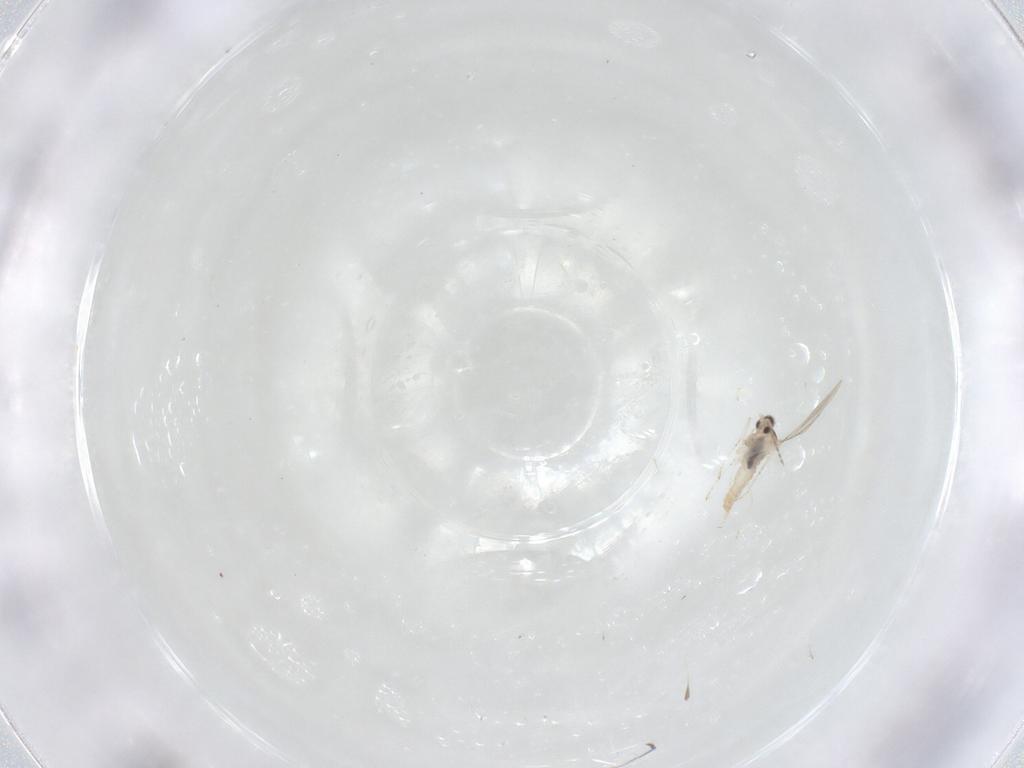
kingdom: Animalia
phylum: Arthropoda
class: Insecta
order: Diptera
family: Cecidomyiidae
